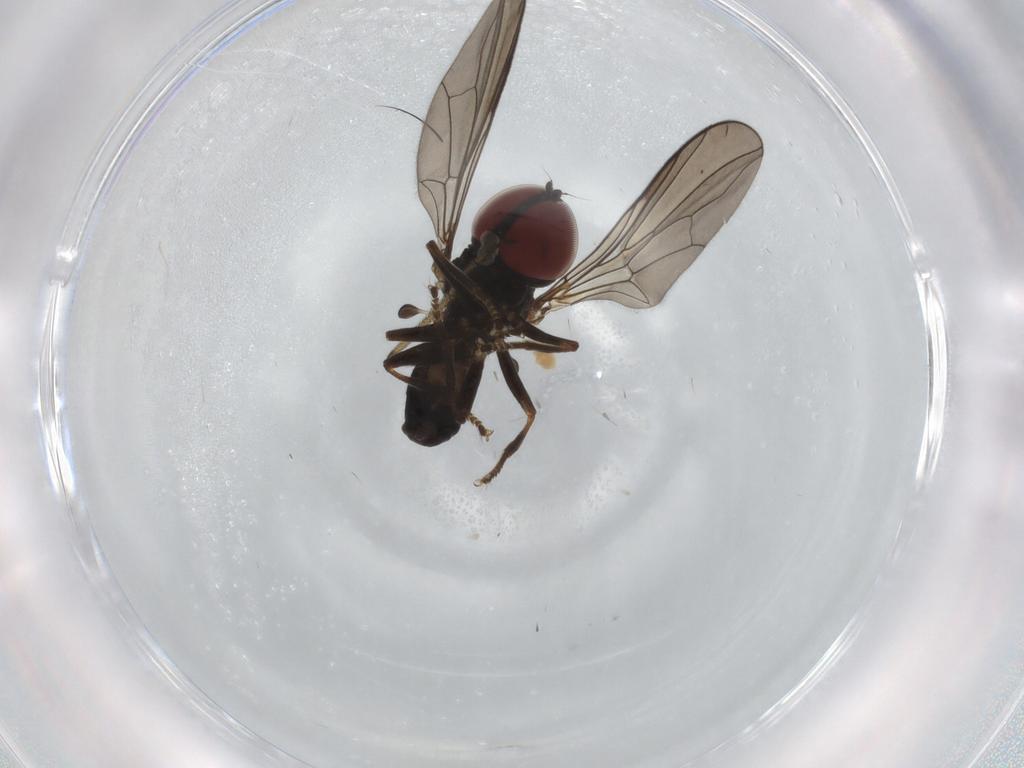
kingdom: Animalia
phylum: Arthropoda
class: Insecta
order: Diptera
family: Pipunculidae
